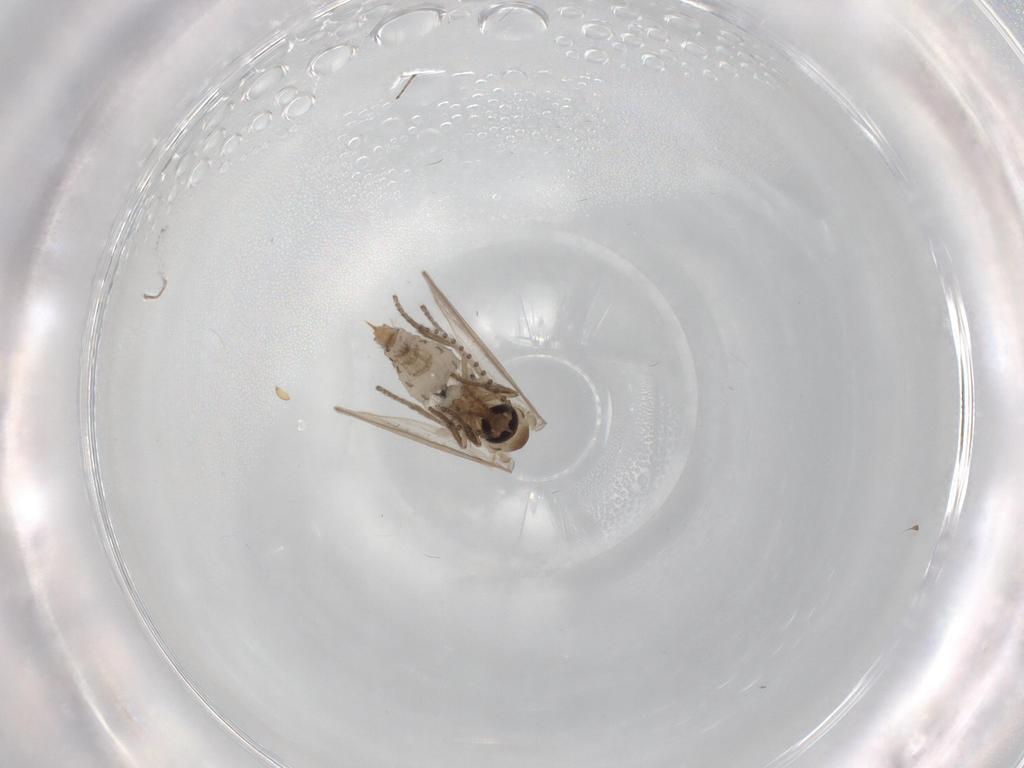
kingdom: Animalia
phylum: Arthropoda
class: Insecta
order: Diptera
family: Psychodidae
